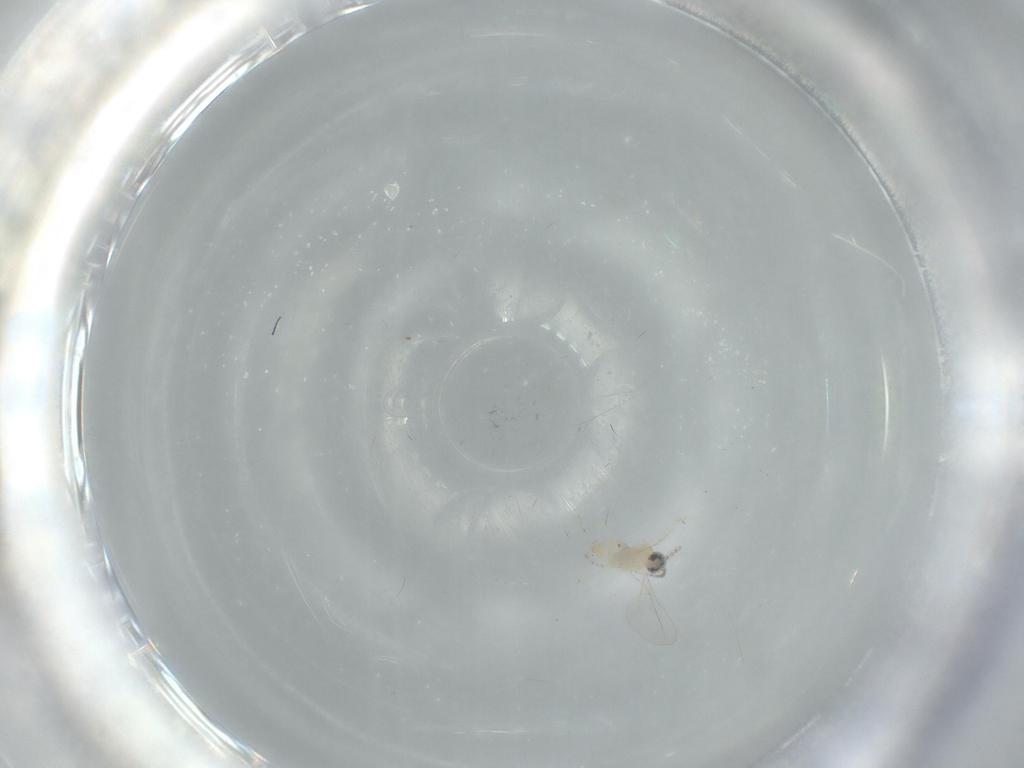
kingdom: Animalia
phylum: Arthropoda
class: Insecta
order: Diptera
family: Cecidomyiidae
